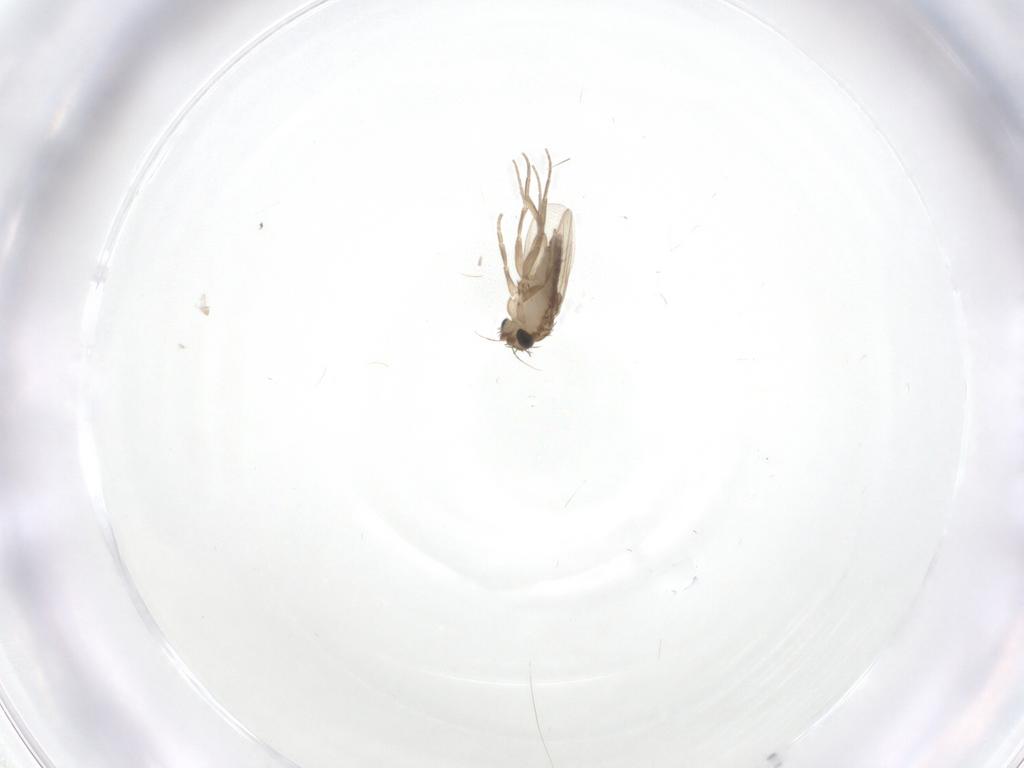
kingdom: Animalia
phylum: Arthropoda
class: Insecta
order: Diptera
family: Ceratopogonidae
